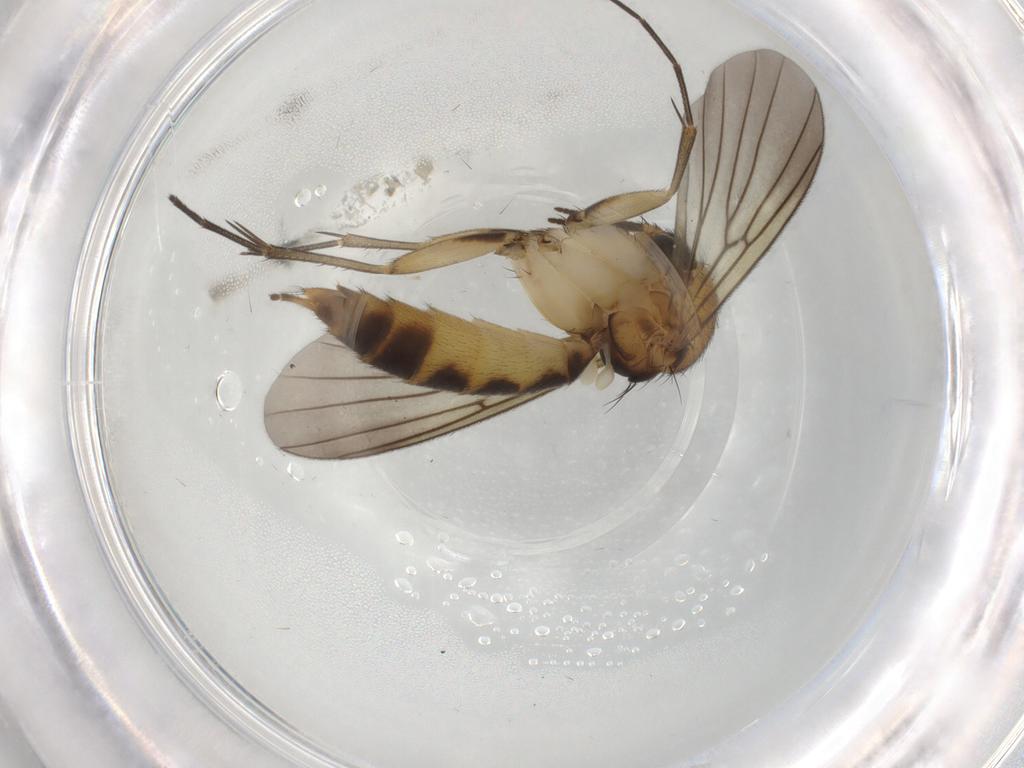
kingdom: Animalia
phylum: Arthropoda
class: Insecta
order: Diptera
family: Mycetophilidae
